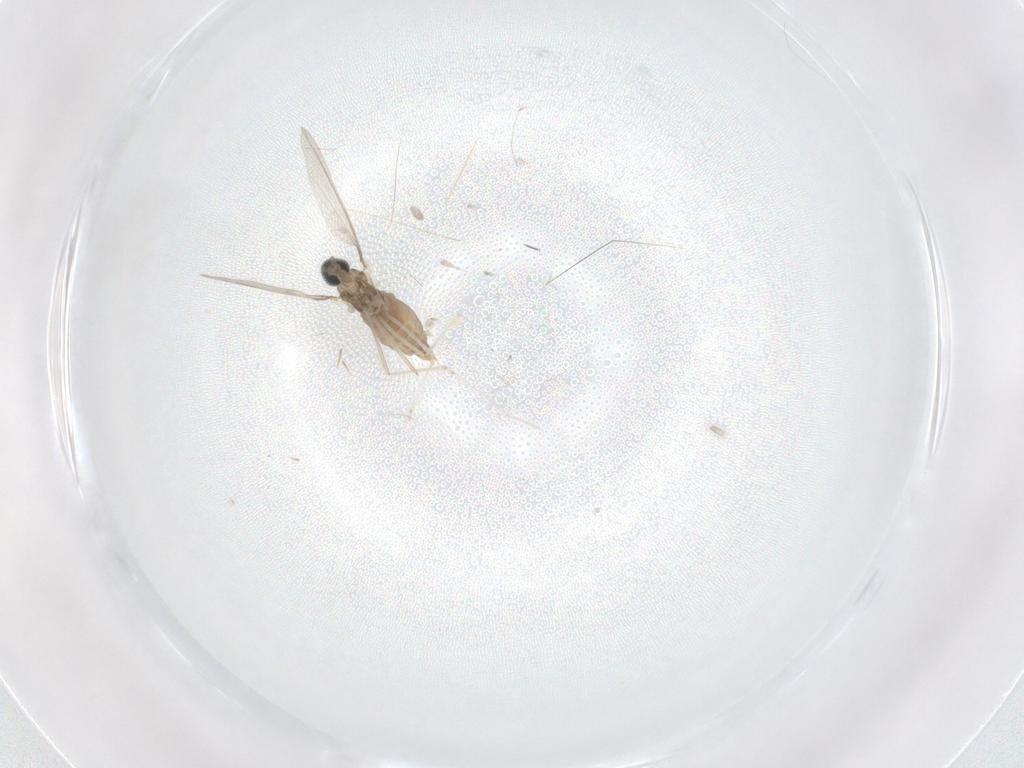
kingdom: Animalia
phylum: Arthropoda
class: Insecta
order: Diptera
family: Cecidomyiidae
